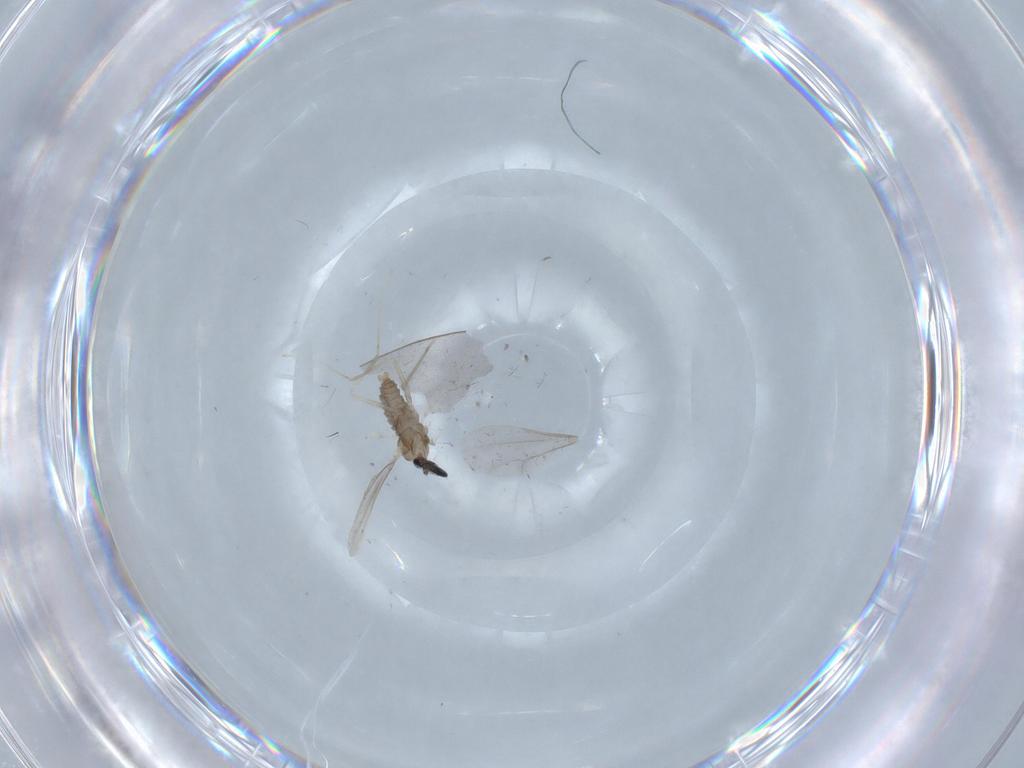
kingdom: Animalia
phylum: Arthropoda
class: Insecta
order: Diptera
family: Cecidomyiidae
